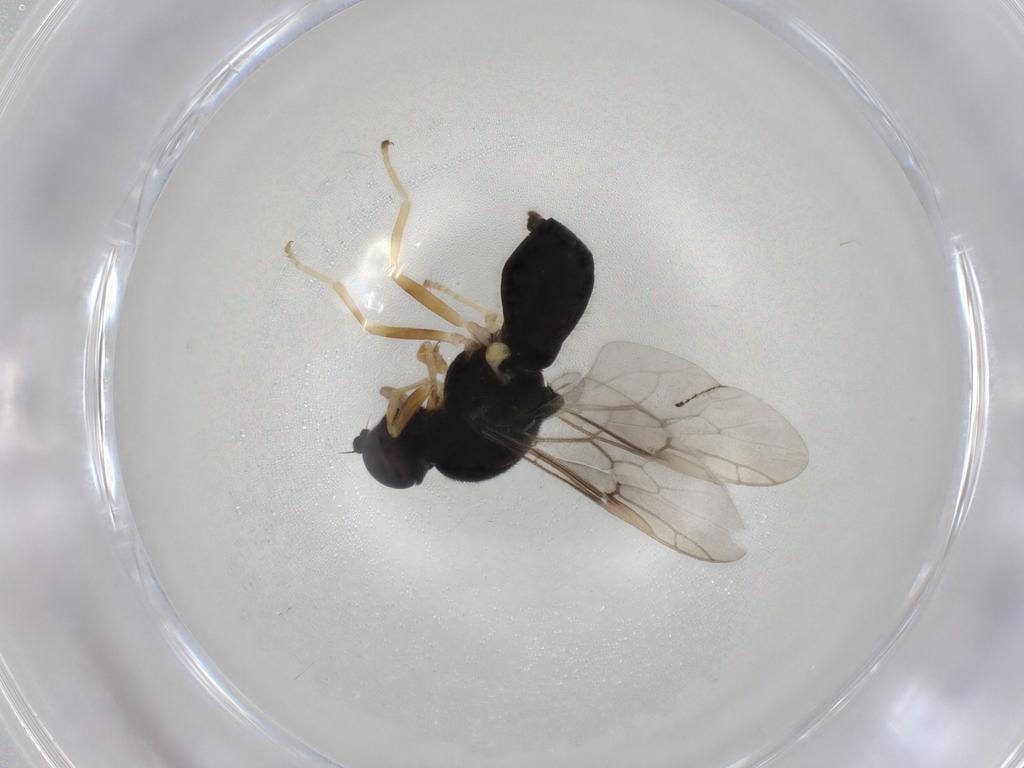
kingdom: Animalia
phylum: Arthropoda
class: Insecta
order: Diptera
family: Stratiomyidae
